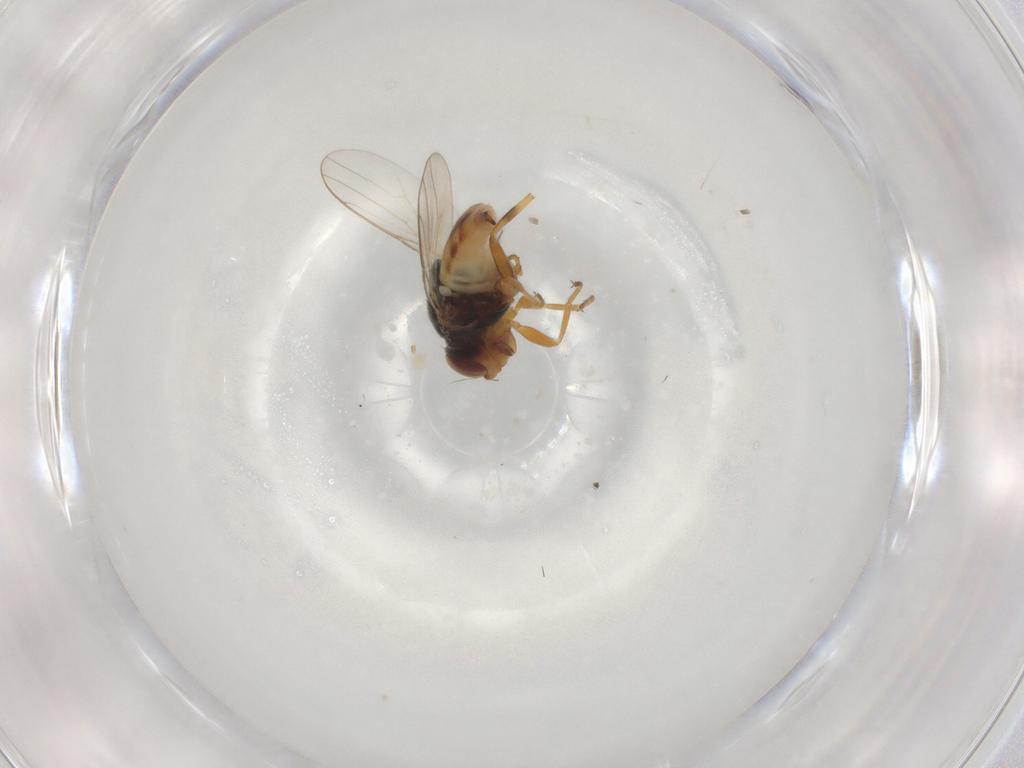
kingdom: Animalia
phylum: Arthropoda
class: Insecta
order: Diptera
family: Chloropidae
